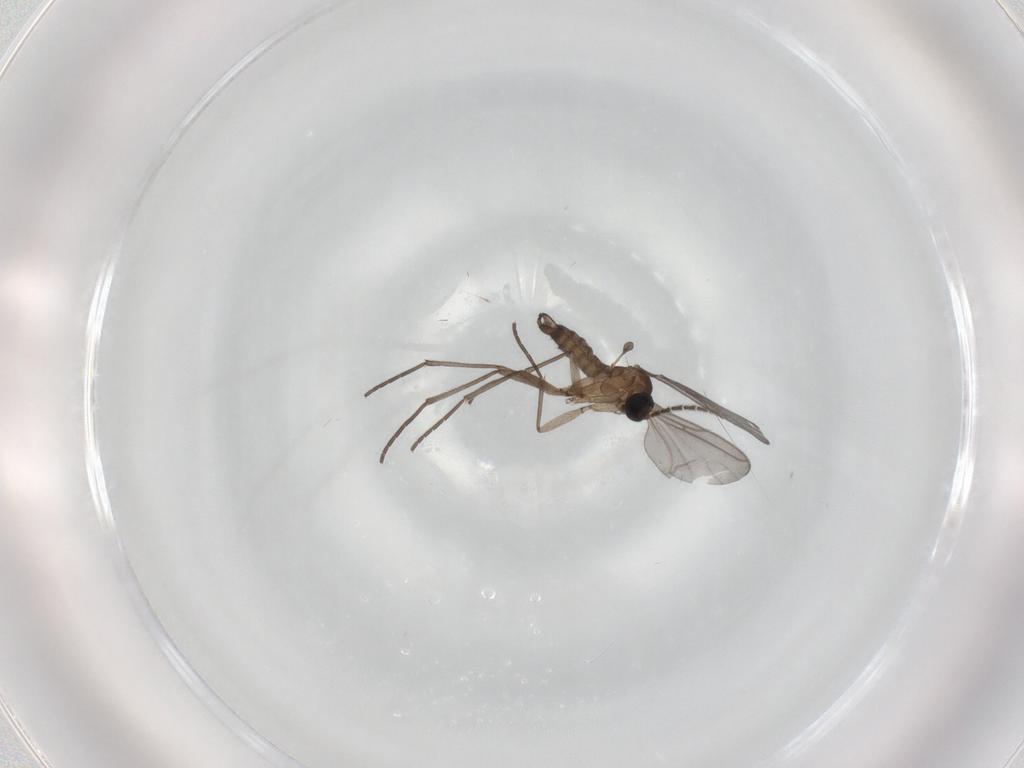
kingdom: Animalia
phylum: Arthropoda
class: Insecta
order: Diptera
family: Chironomidae
